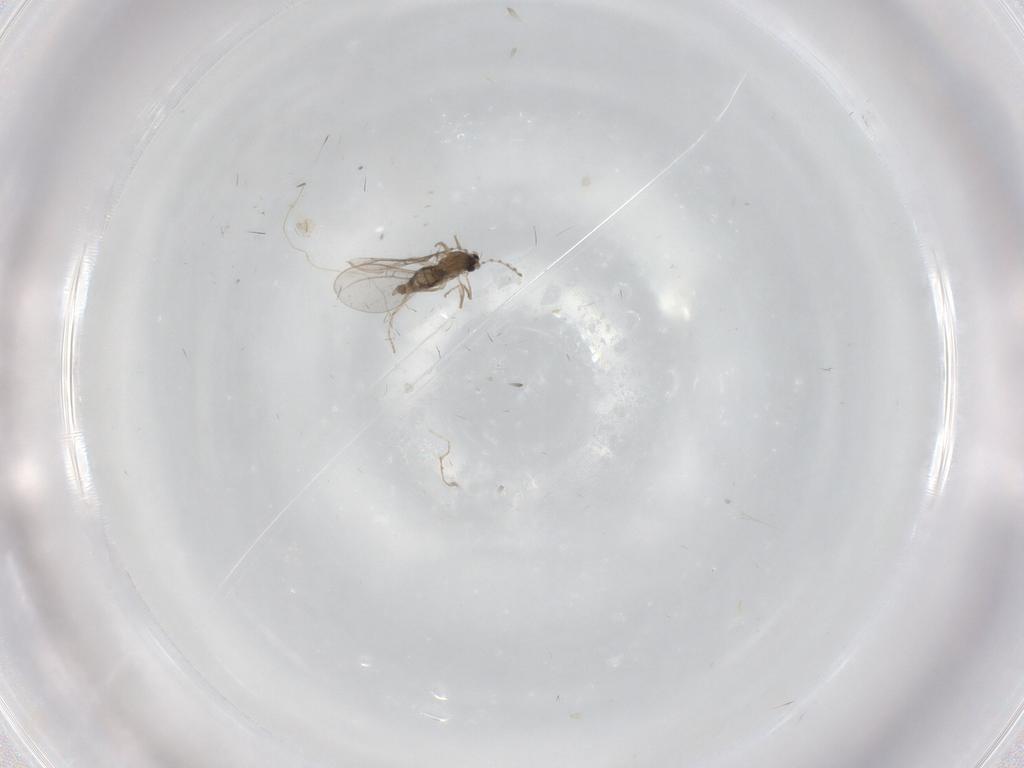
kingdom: Animalia
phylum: Arthropoda
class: Insecta
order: Diptera
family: Cecidomyiidae
